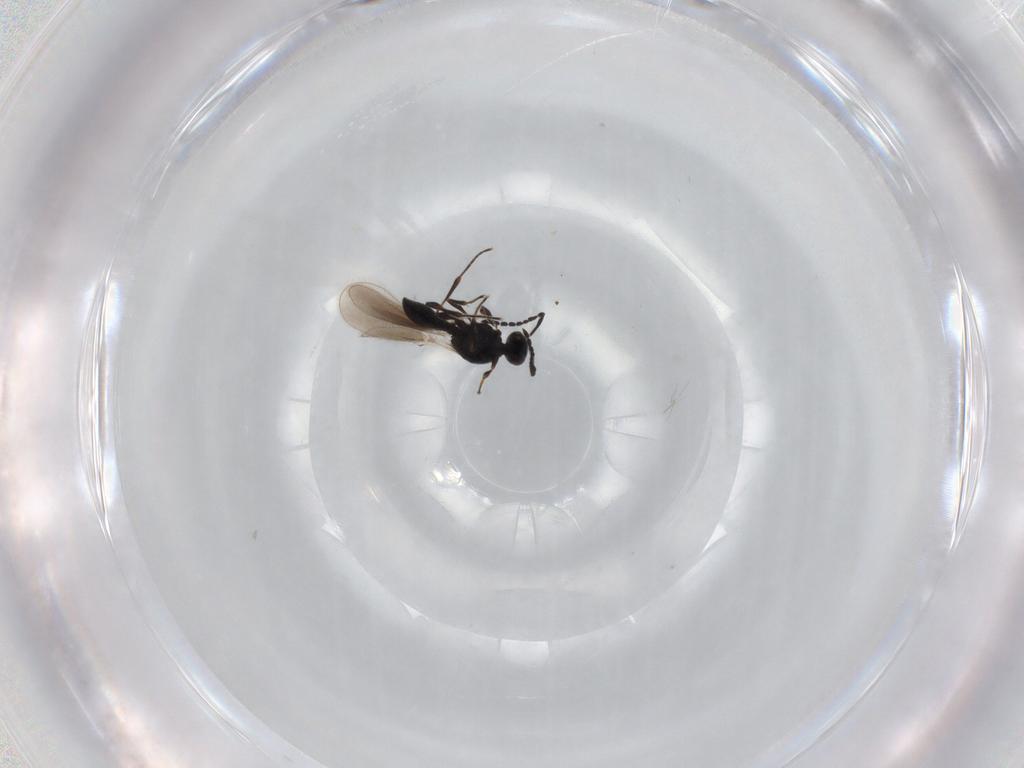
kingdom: Animalia
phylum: Arthropoda
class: Insecta
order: Hymenoptera
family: Platygastridae
